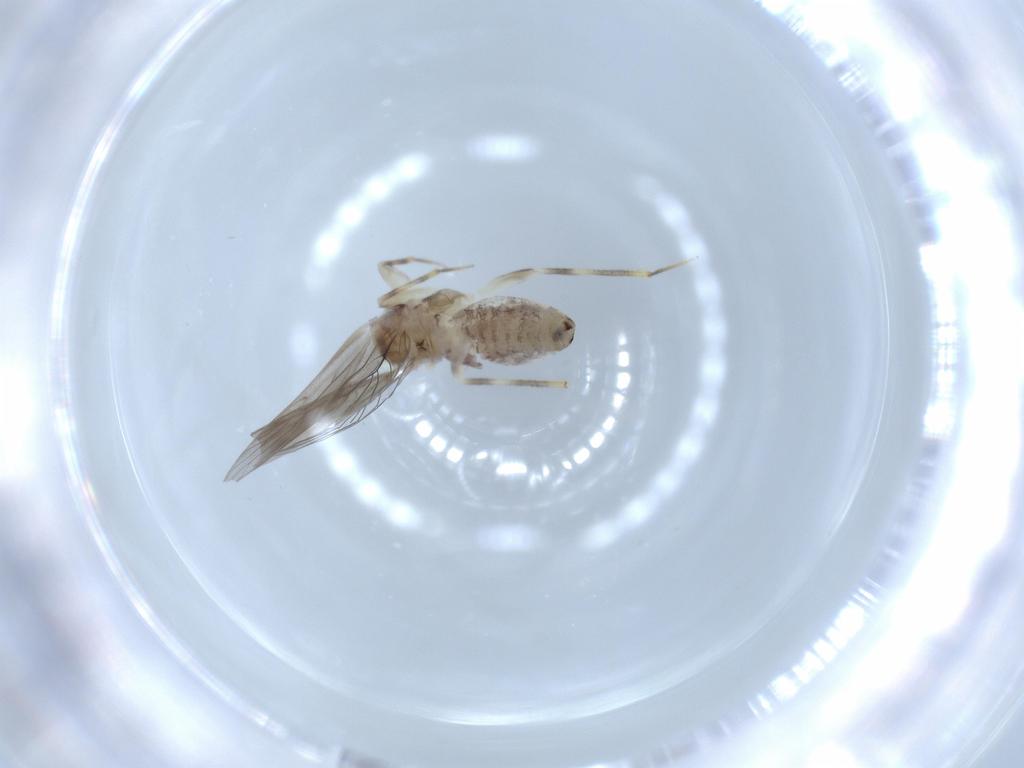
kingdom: Animalia
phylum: Arthropoda
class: Insecta
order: Psocodea
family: Lepidopsocidae
